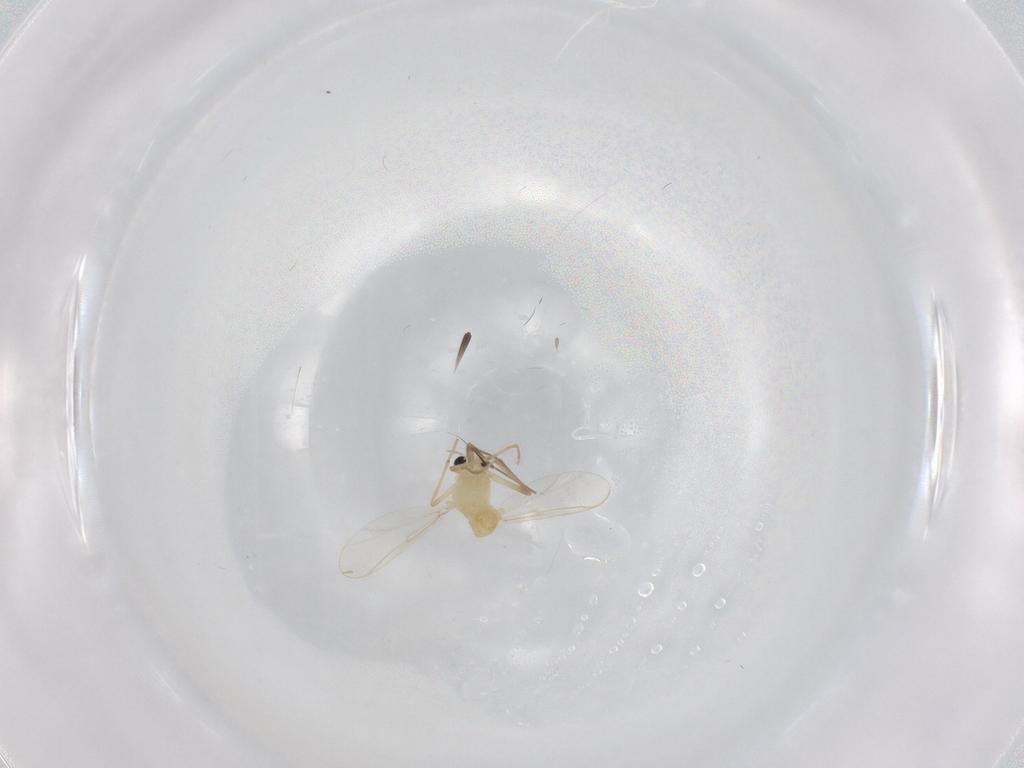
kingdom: Animalia
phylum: Arthropoda
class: Insecta
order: Diptera
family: Chironomidae
